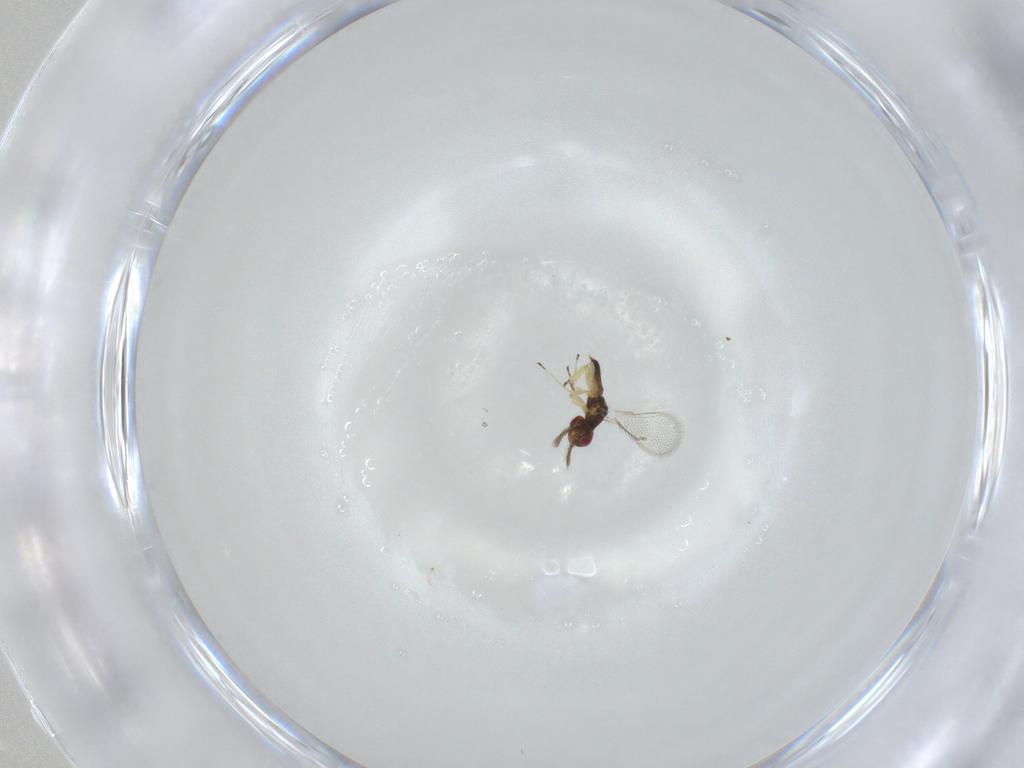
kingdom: Animalia
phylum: Arthropoda
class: Insecta
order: Hymenoptera
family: Eulophidae
